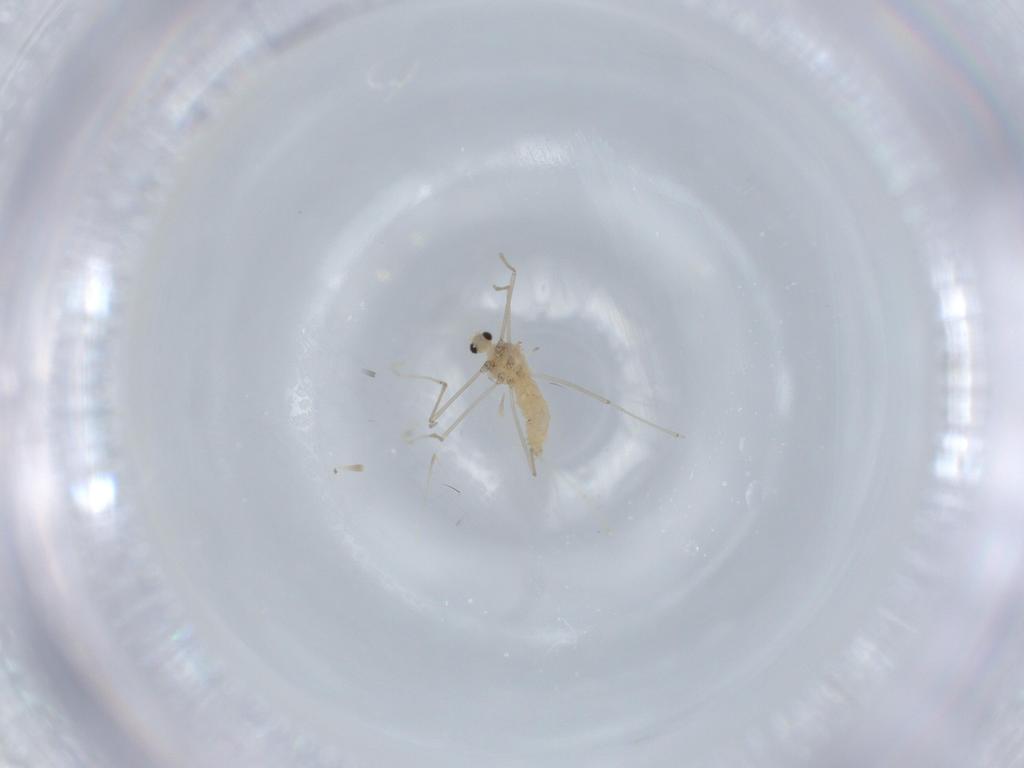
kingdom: Animalia
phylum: Arthropoda
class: Insecta
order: Diptera
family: Cecidomyiidae
